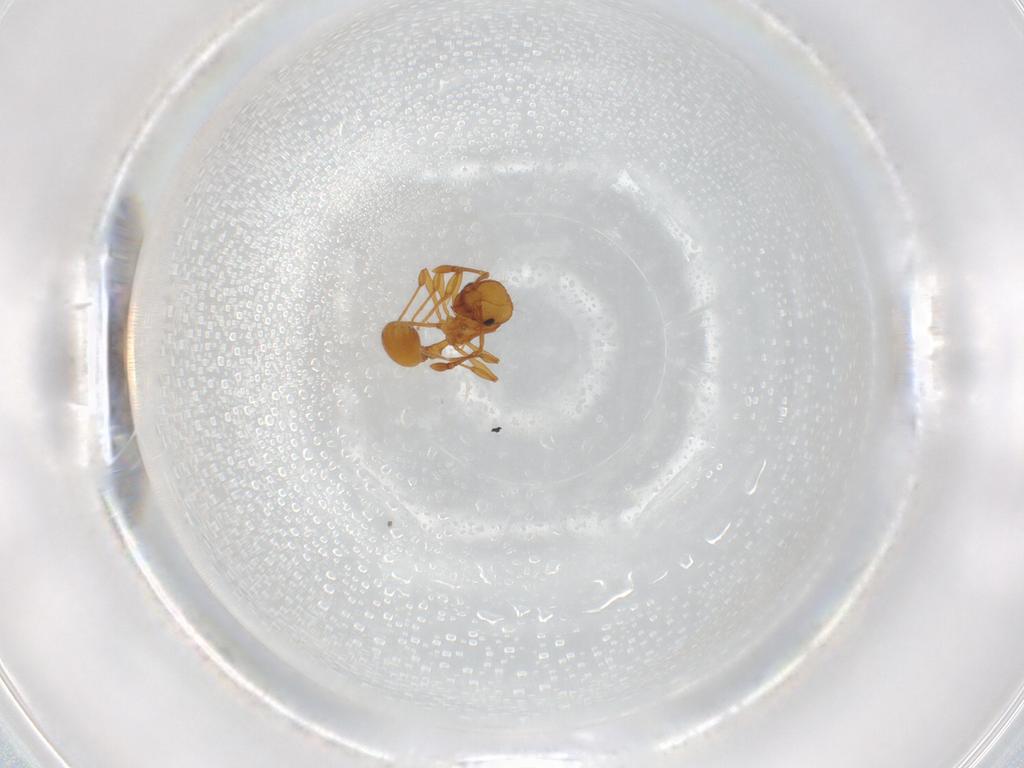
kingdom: Animalia
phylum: Arthropoda
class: Insecta
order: Hymenoptera
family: Formicidae
